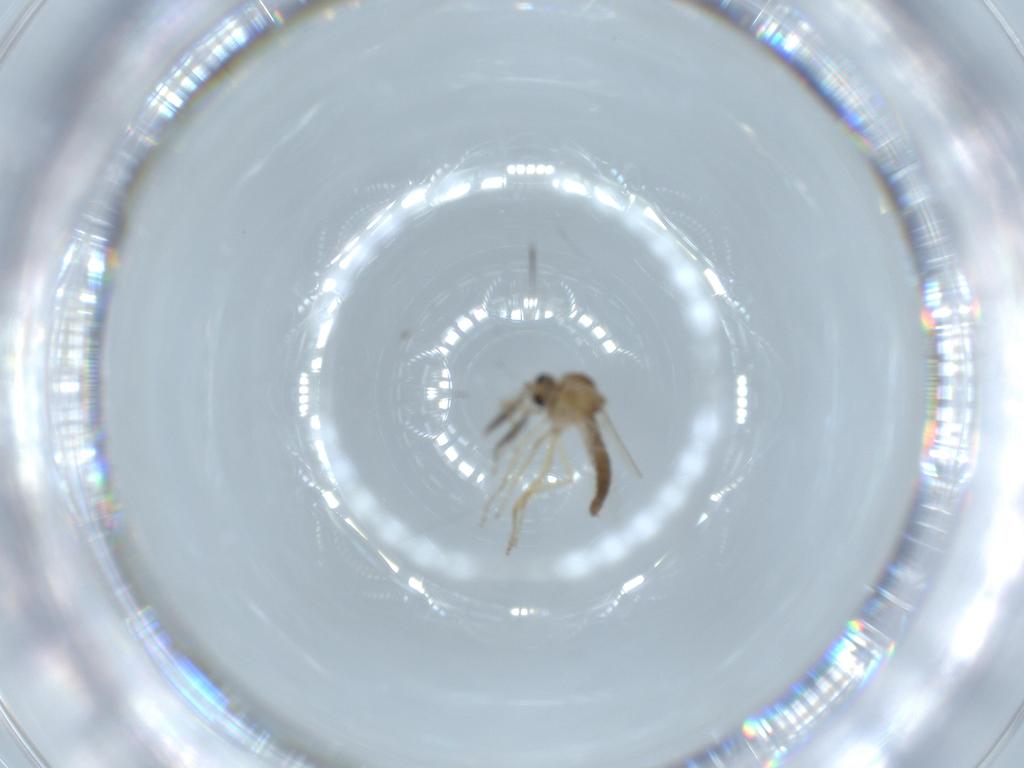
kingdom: Animalia
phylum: Arthropoda
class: Insecta
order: Diptera
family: Ceratopogonidae
